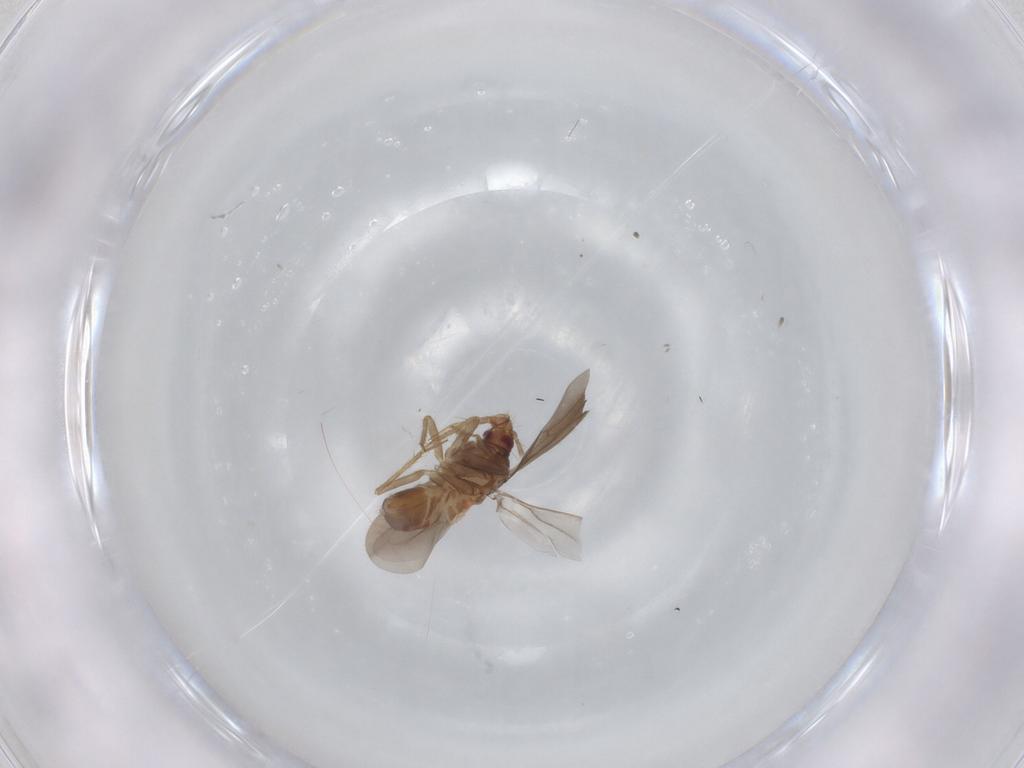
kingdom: Animalia
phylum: Arthropoda
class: Insecta
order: Hemiptera
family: Ceratocombidae
